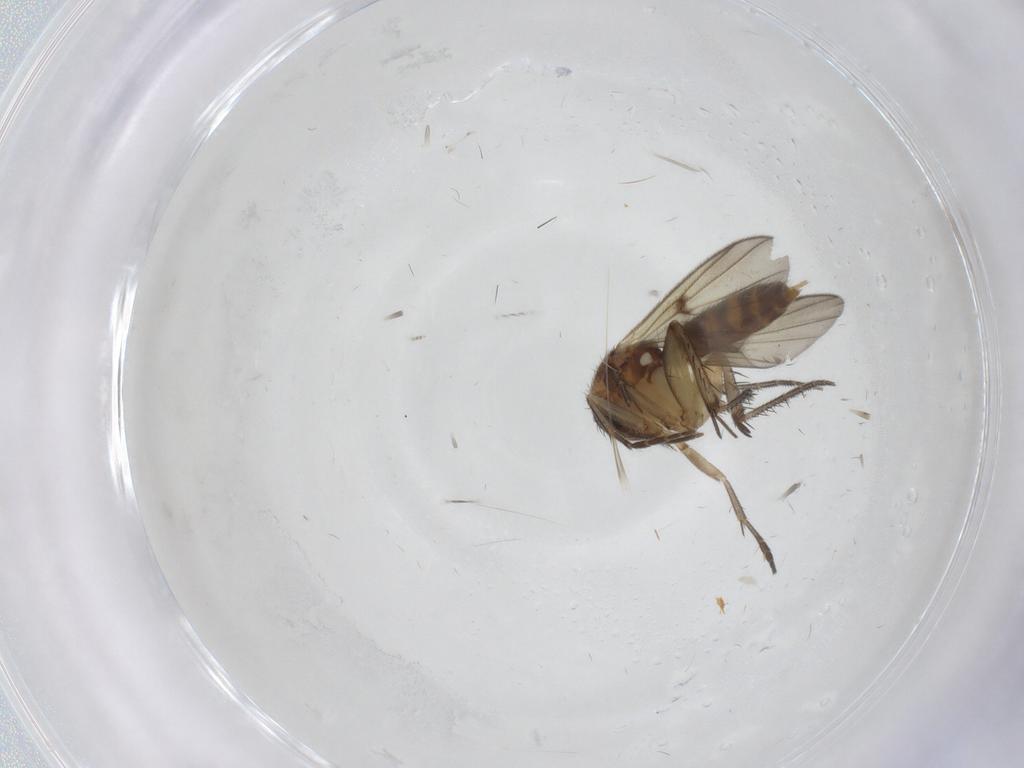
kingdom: Animalia
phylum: Arthropoda
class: Insecta
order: Diptera
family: Mycetophilidae
